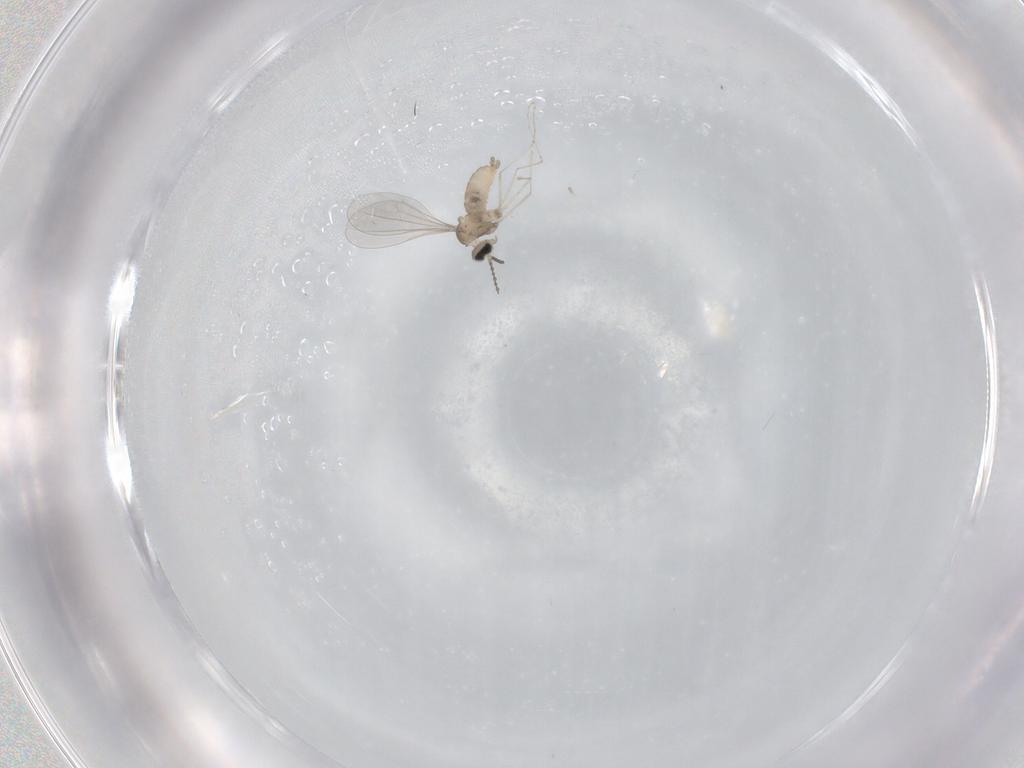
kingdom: Animalia
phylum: Arthropoda
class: Insecta
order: Diptera
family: Cecidomyiidae
